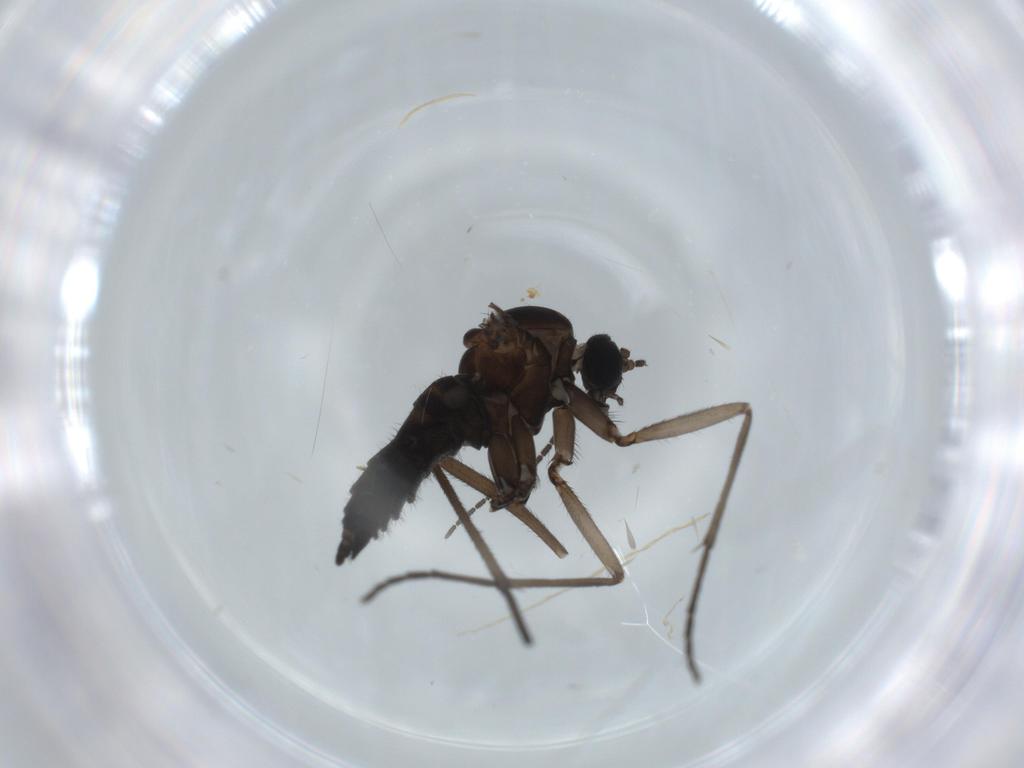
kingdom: Animalia
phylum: Arthropoda
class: Insecta
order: Diptera
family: Sciaridae
